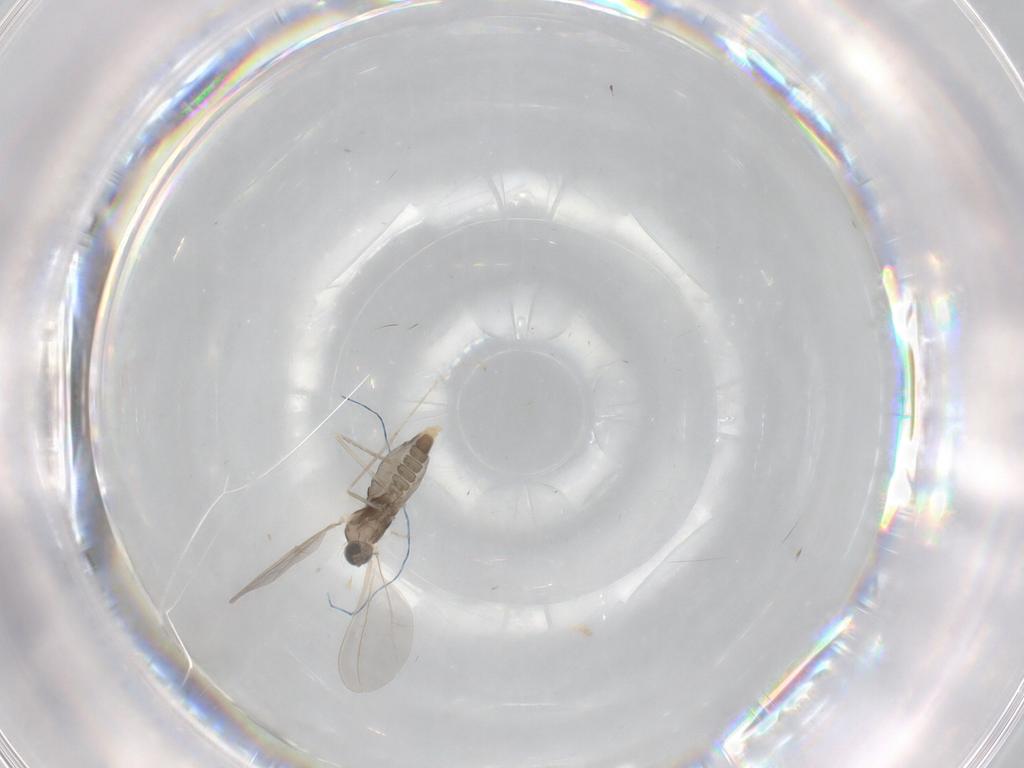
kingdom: Animalia
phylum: Arthropoda
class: Insecta
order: Diptera
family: Cecidomyiidae
